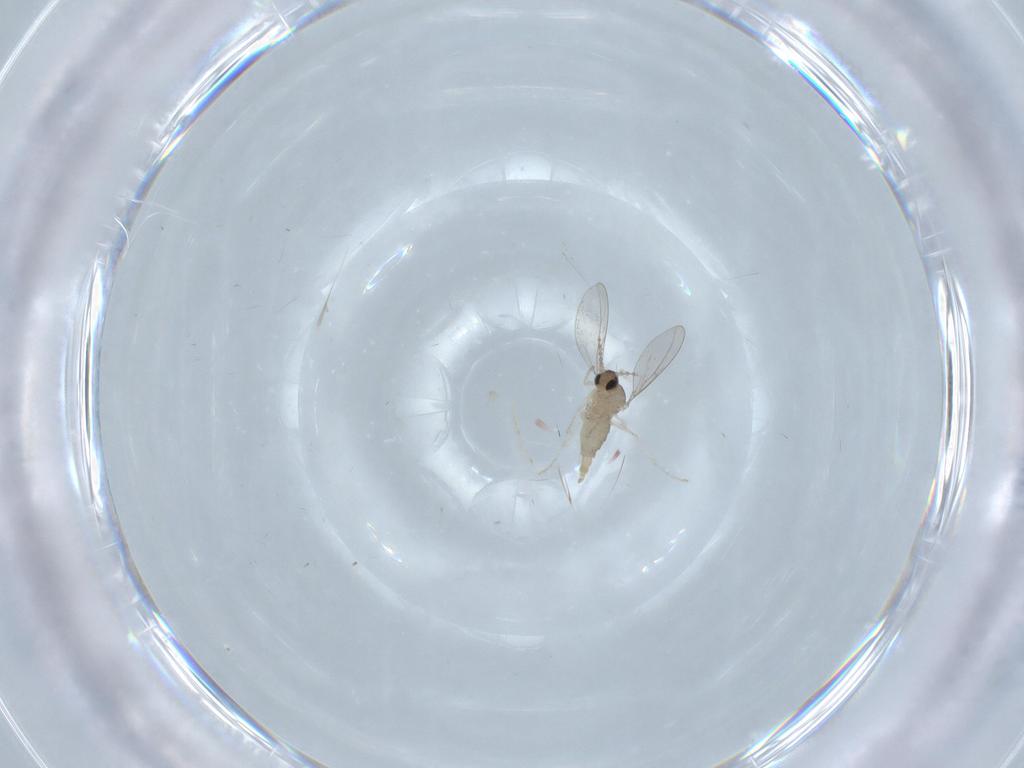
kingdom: Animalia
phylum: Arthropoda
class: Insecta
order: Diptera
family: Cecidomyiidae
